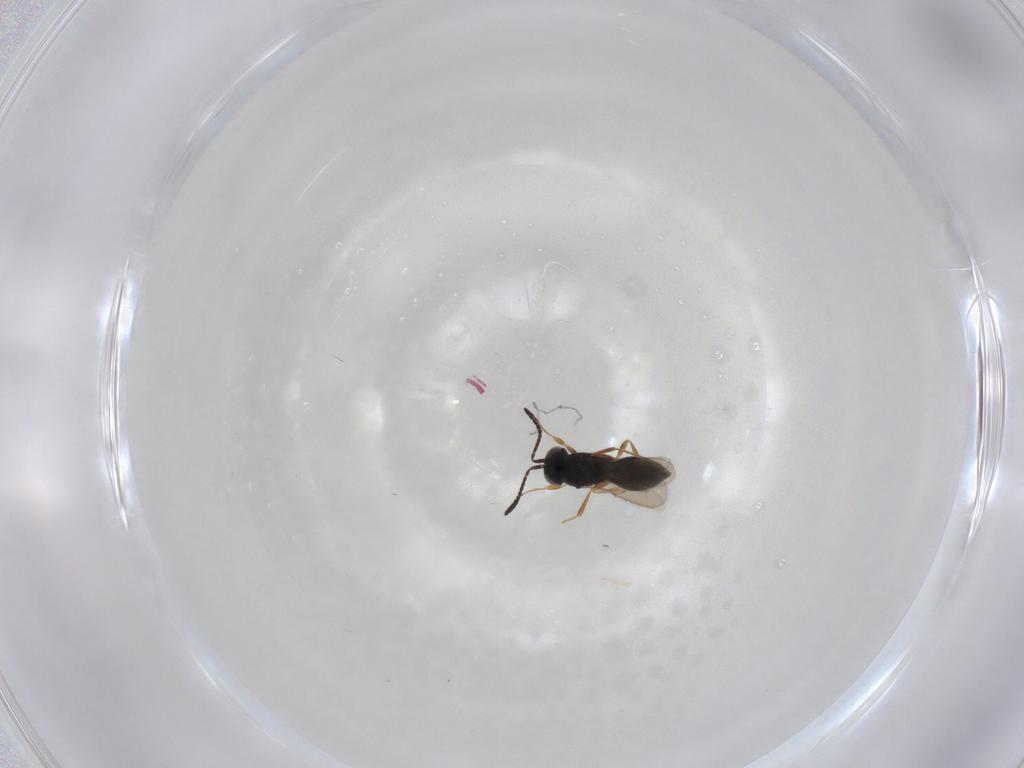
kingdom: Animalia
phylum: Arthropoda
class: Insecta
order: Hymenoptera
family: Scelionidae
